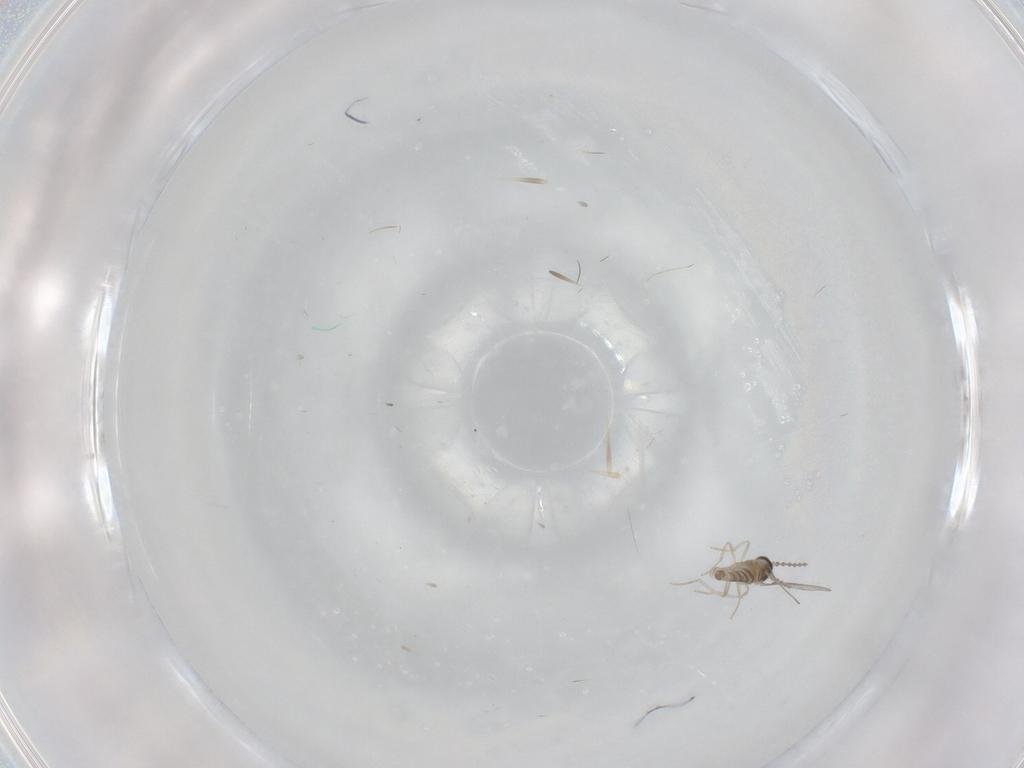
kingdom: Animalia
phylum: Arthropoda
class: Insecta
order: Diptera
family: Cecidomyiidae
